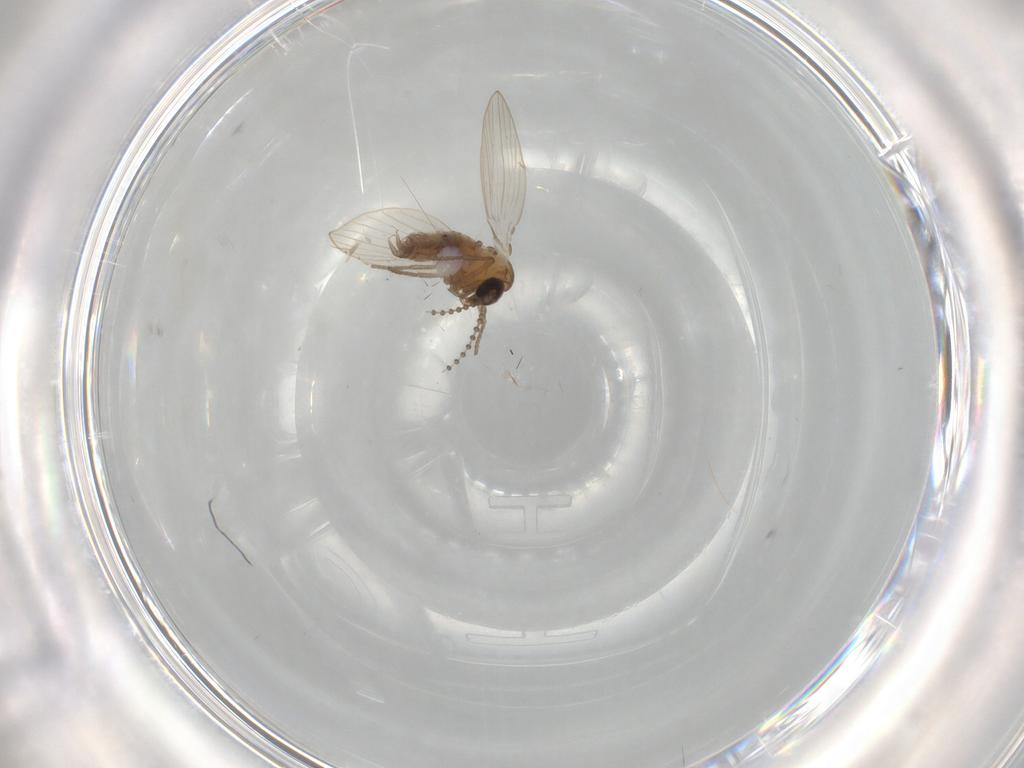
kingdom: Animalia
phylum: Arthropoda
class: Insecta
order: Diptera
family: Psychodidae
